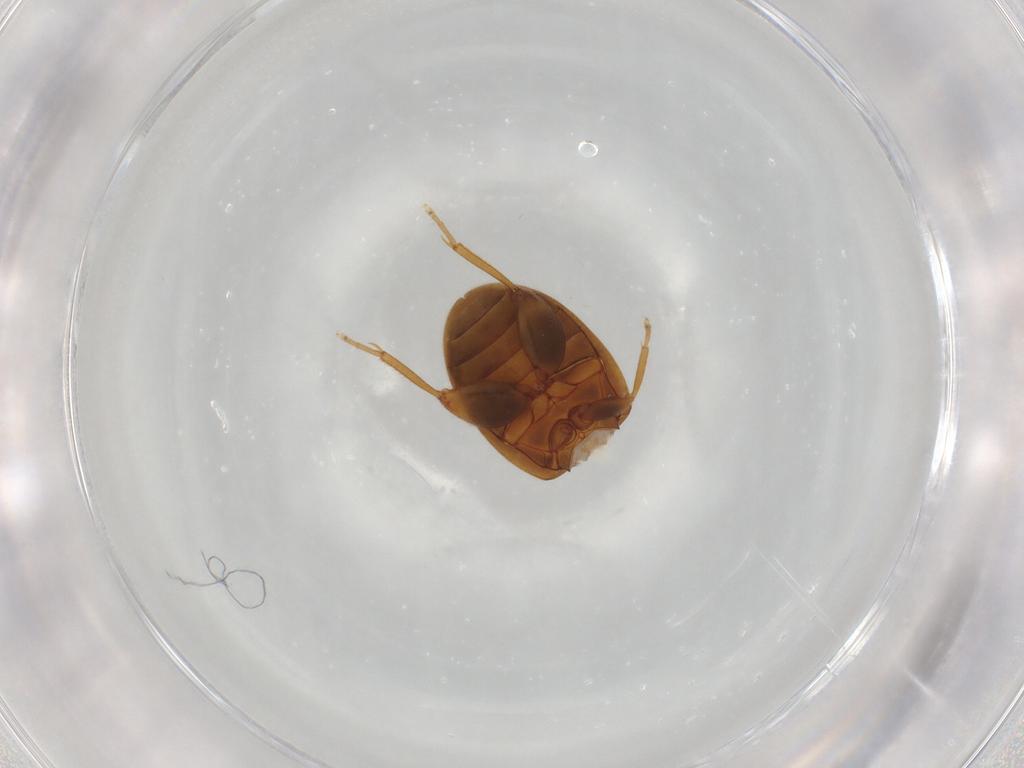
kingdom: Animalia
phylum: Arthropoda
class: Insecta
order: Coleoptera
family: Scirtidae
